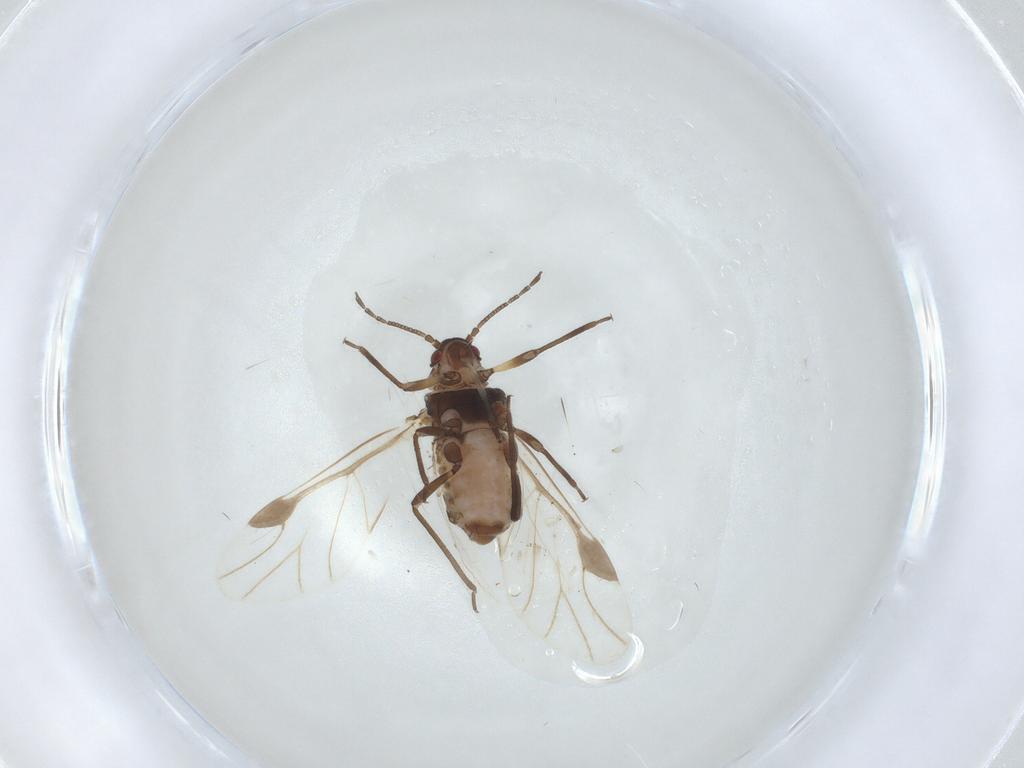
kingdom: Animalia
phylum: Arthropoda
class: Insecta
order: Hemiptera
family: Aphididae
